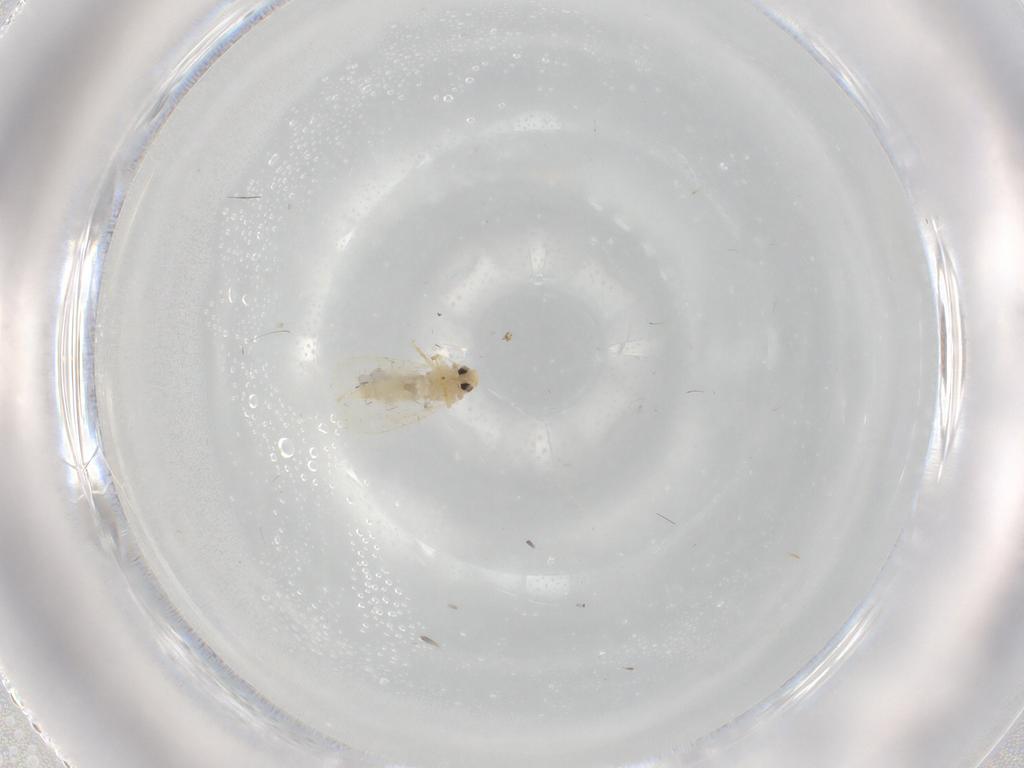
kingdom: Animalia
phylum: Arthropoda
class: Insecta
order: Hemiptera
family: Aleyrodidae
